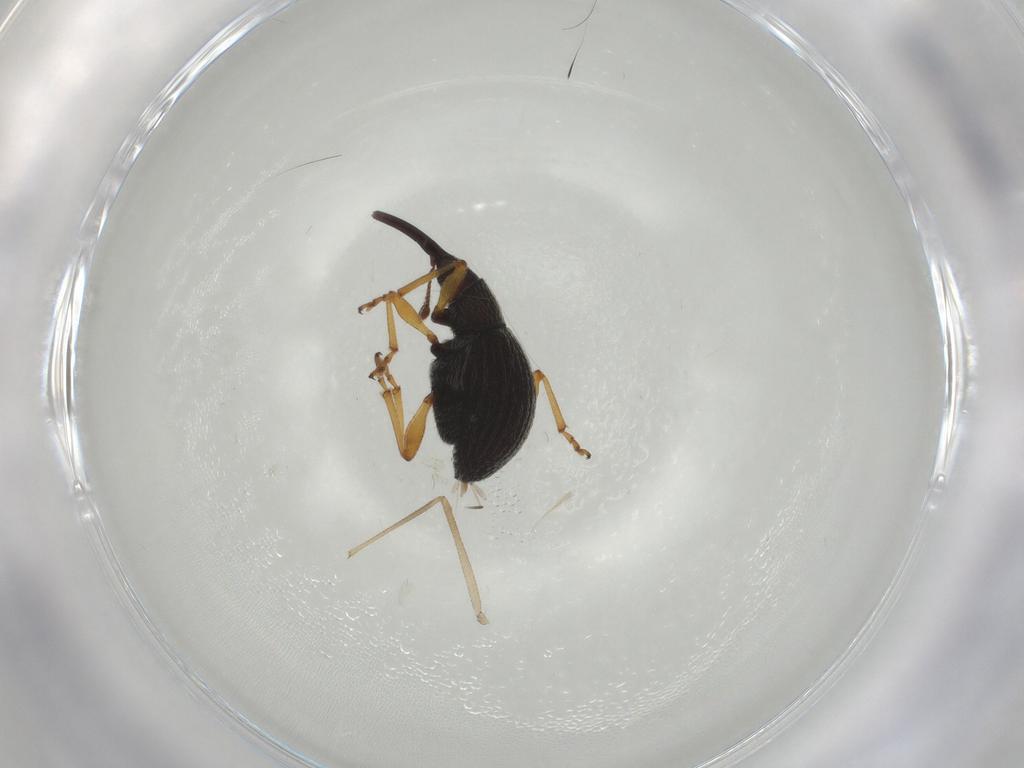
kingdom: Animalia
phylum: Arthropoda
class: Insecta
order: Coleoptera
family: Brentidae
